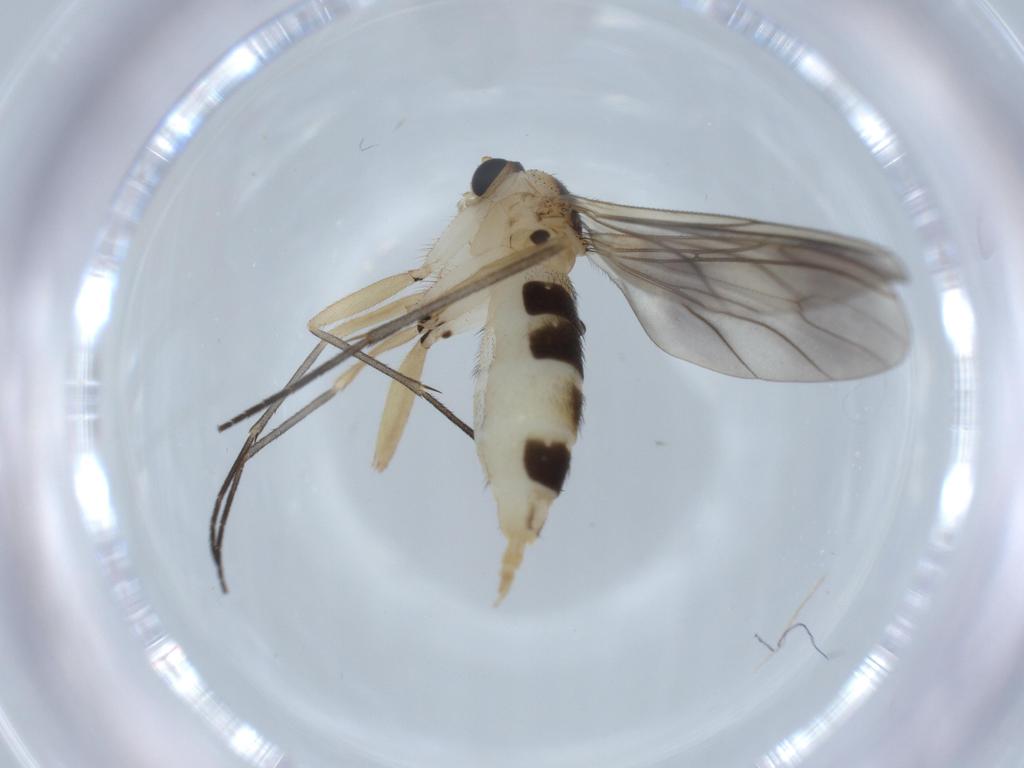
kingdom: Animalia
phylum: Arthropoda
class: Insecta
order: Diptera
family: Sciaridae
